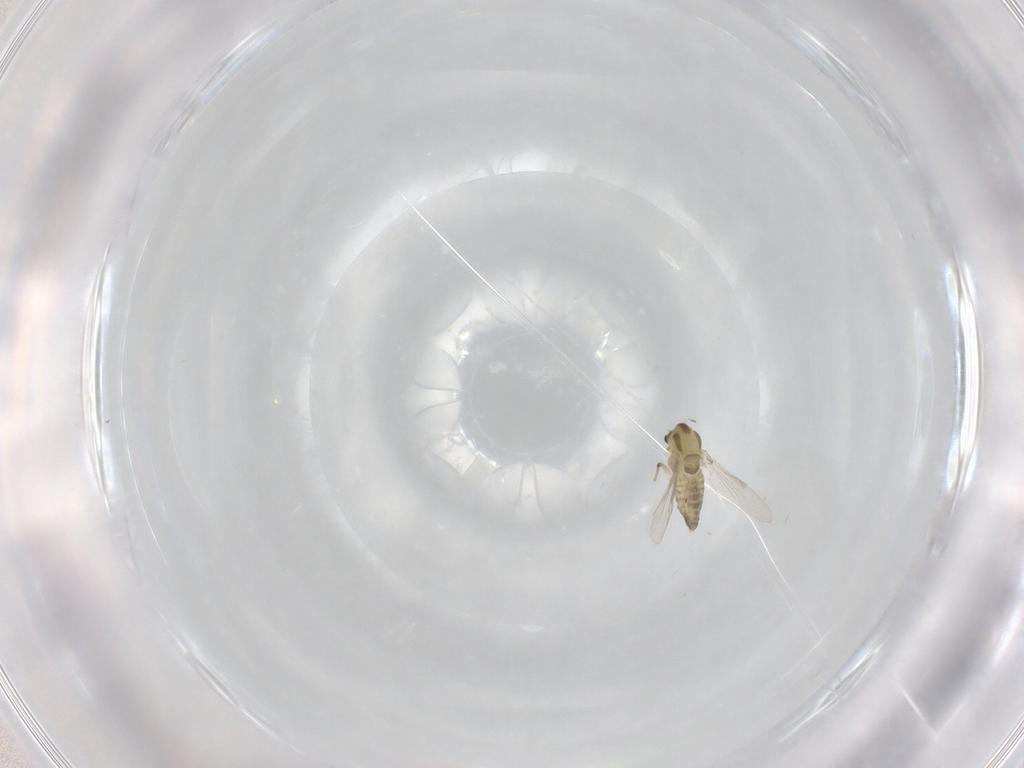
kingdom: Animalia
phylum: Arthropoda
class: Insecta
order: Diptera
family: Chironomidae
